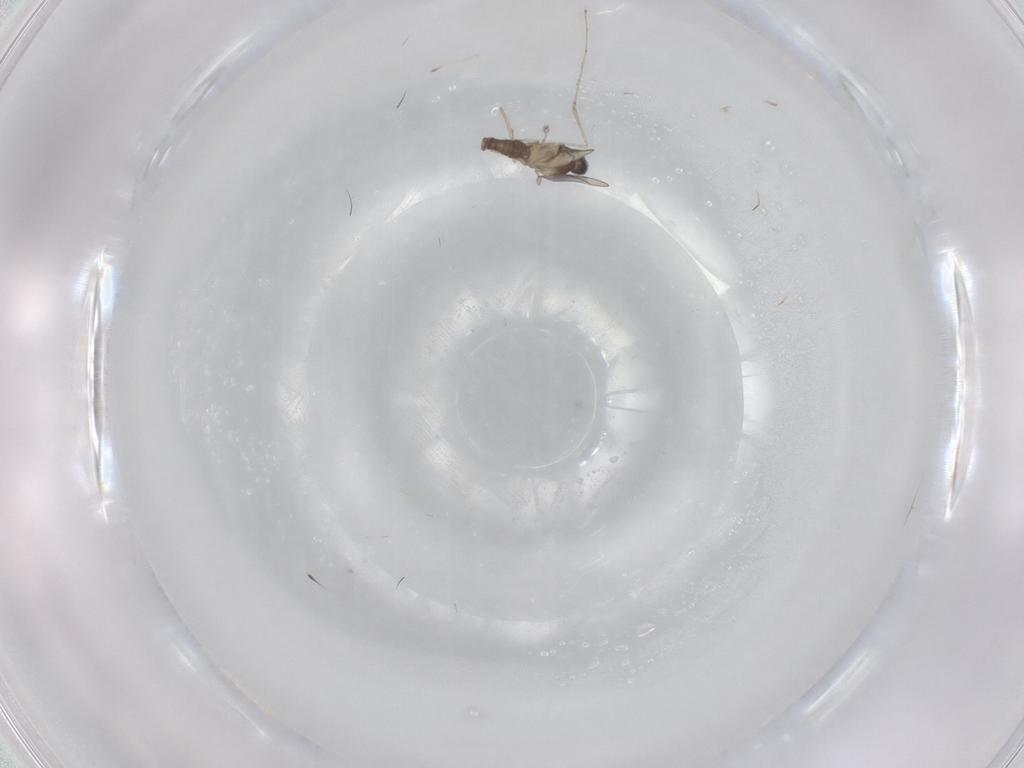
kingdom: Animalia
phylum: Arthropoda
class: Insecta
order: Diptera
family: Cecidomyiidae
